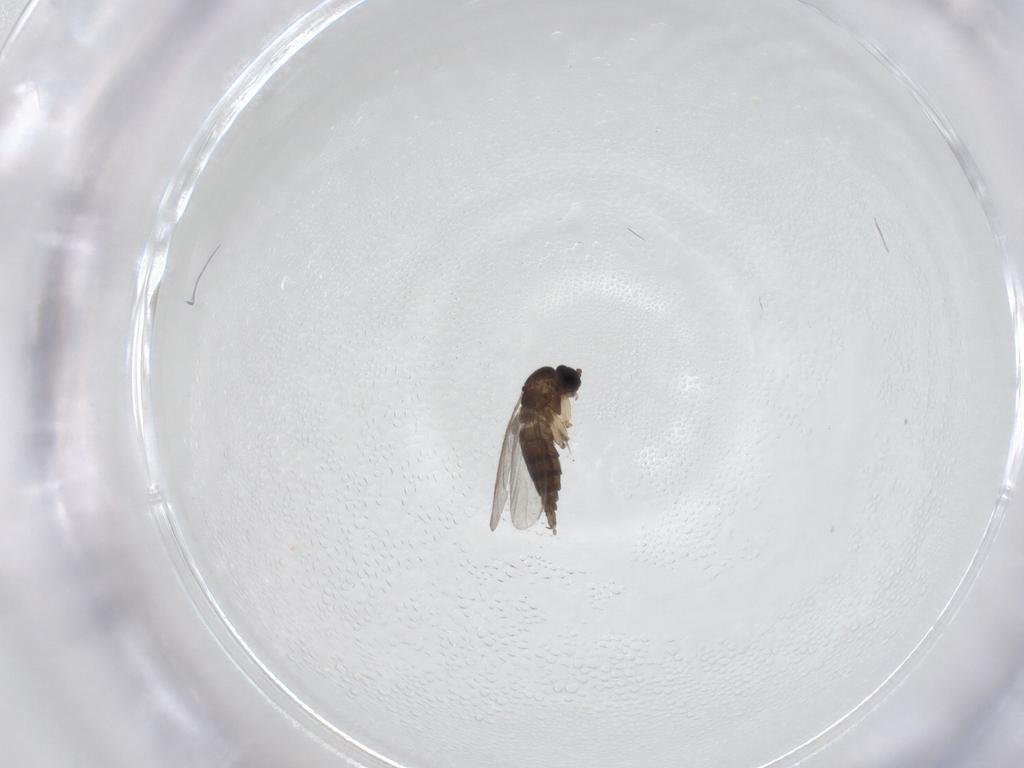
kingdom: Animalia
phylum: Arthropoda
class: Insecta
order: Diptera
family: Sciaridae
